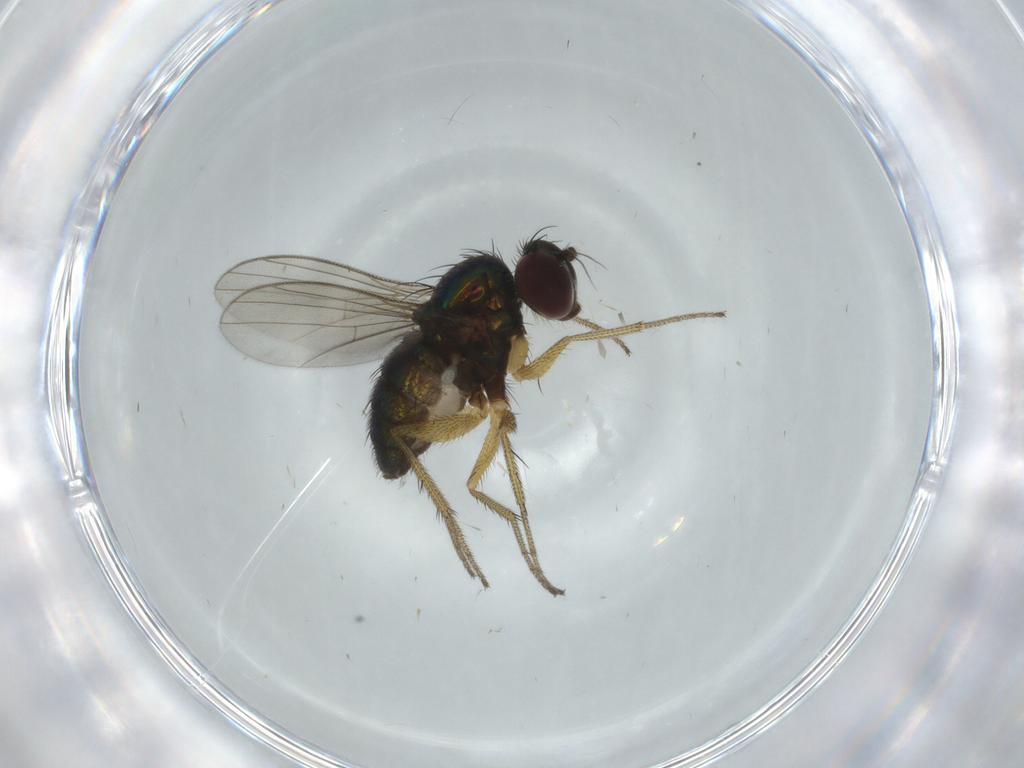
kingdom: Animalia
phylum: Arthropoda
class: Insecta
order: Diptera
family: Dolichopodidae
